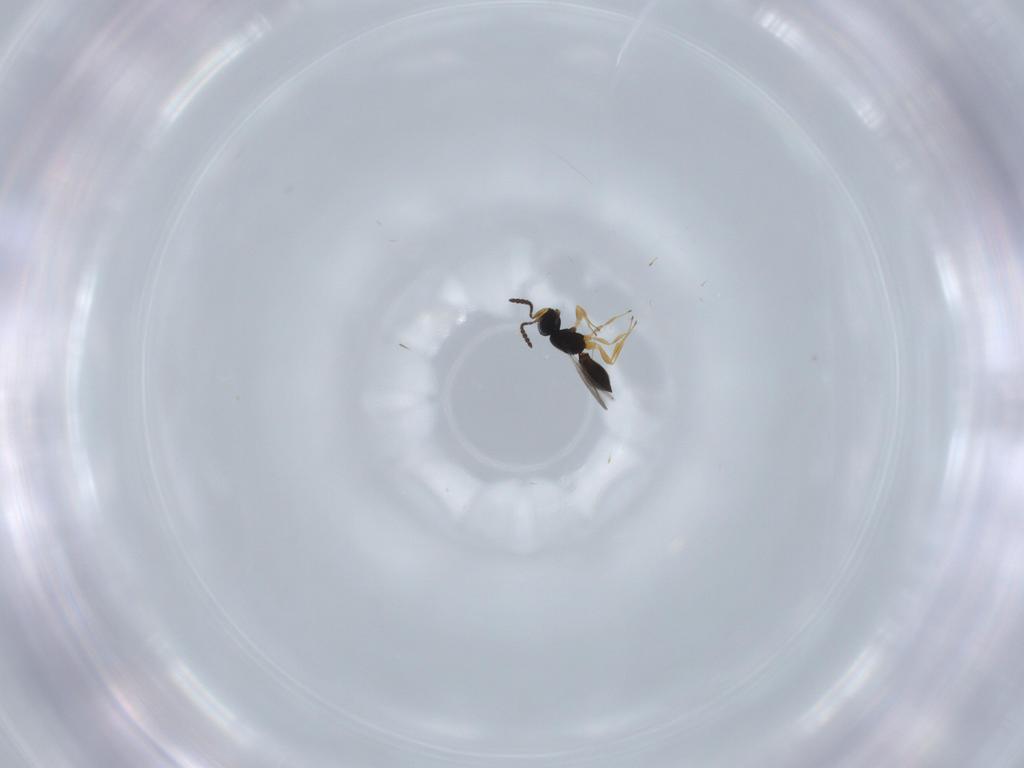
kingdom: Animalia
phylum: Arthropoda
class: Insecta
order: Hymenoptera
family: Scelionidae
